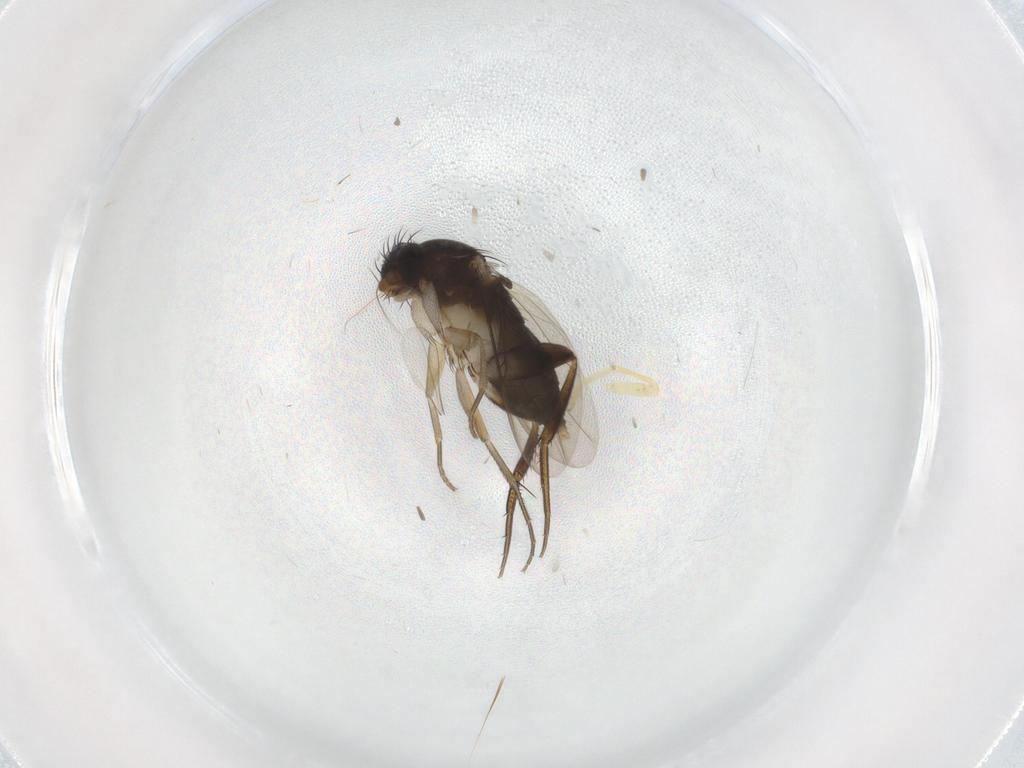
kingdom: Animalia
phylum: Arthropoda
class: Insecta
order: Diptera
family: Phoridae
